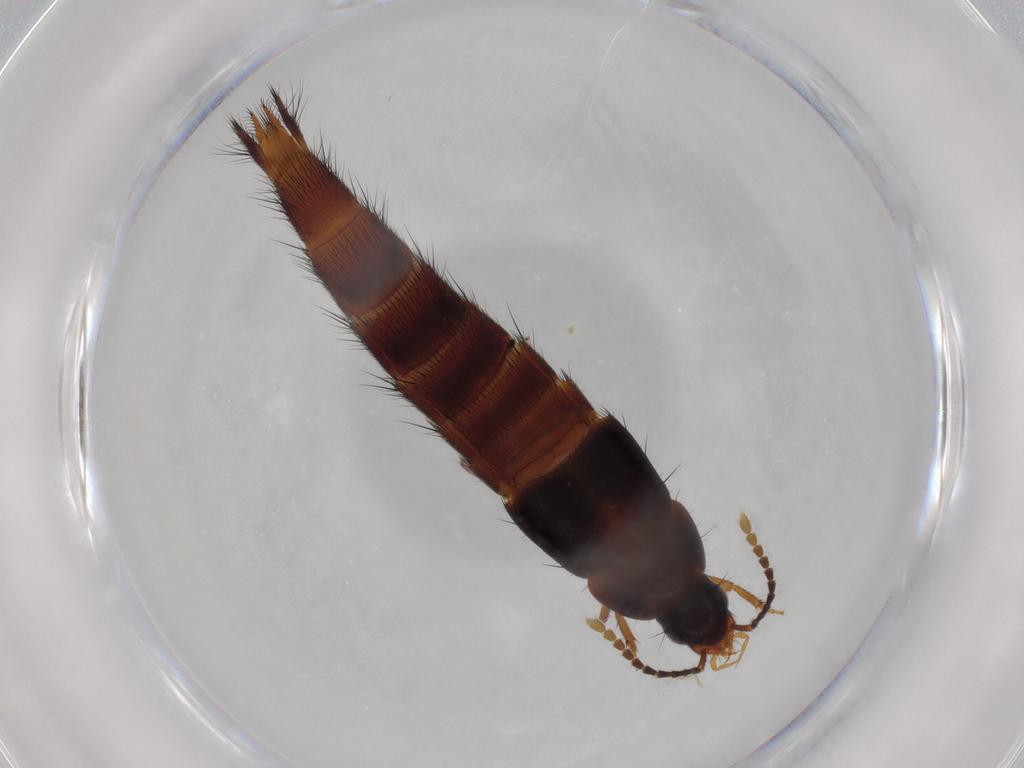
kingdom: Animalia
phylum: Arthropoda
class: Insecta
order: Coleoptera
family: Staphylinidae
